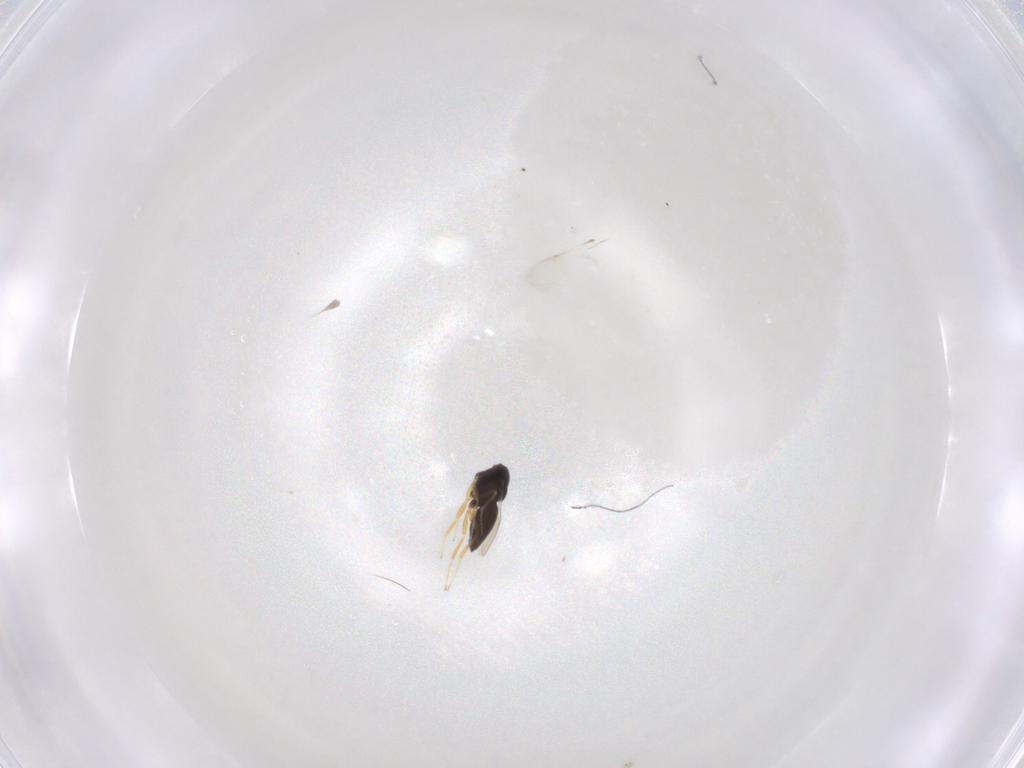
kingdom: Animalia
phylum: Arthropoda
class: Insecta
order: Hymenoptera
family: Scelionidae
